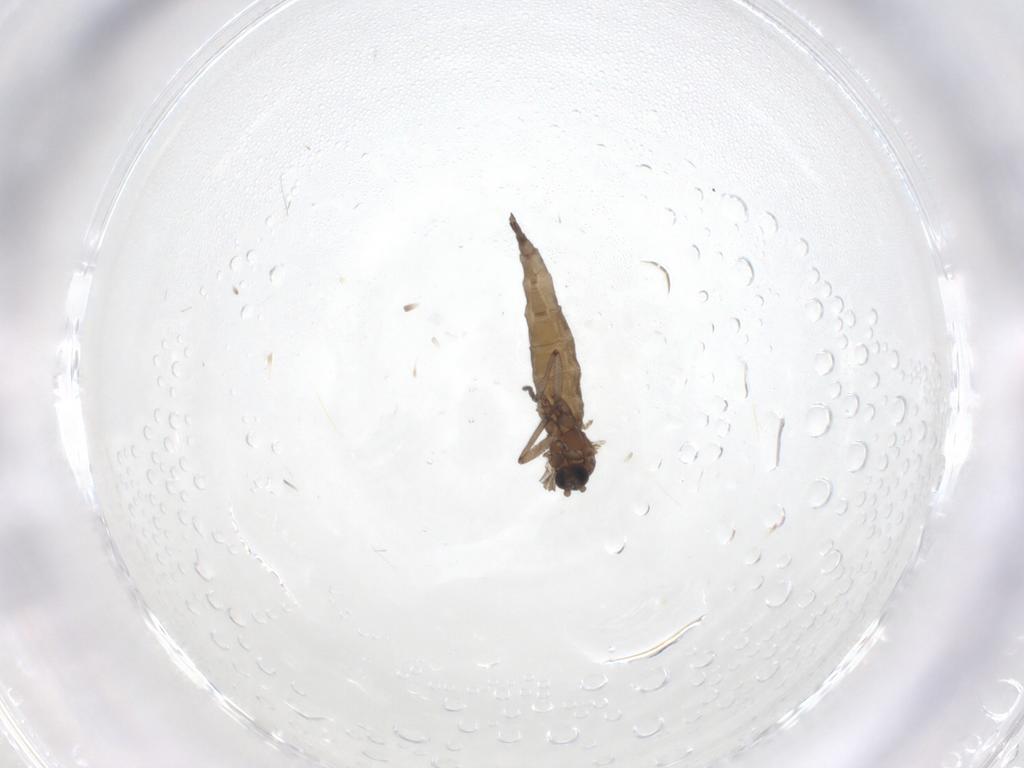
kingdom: Animalia
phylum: Arthropoda
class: Insecta
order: Diptera
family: Sciaridae
